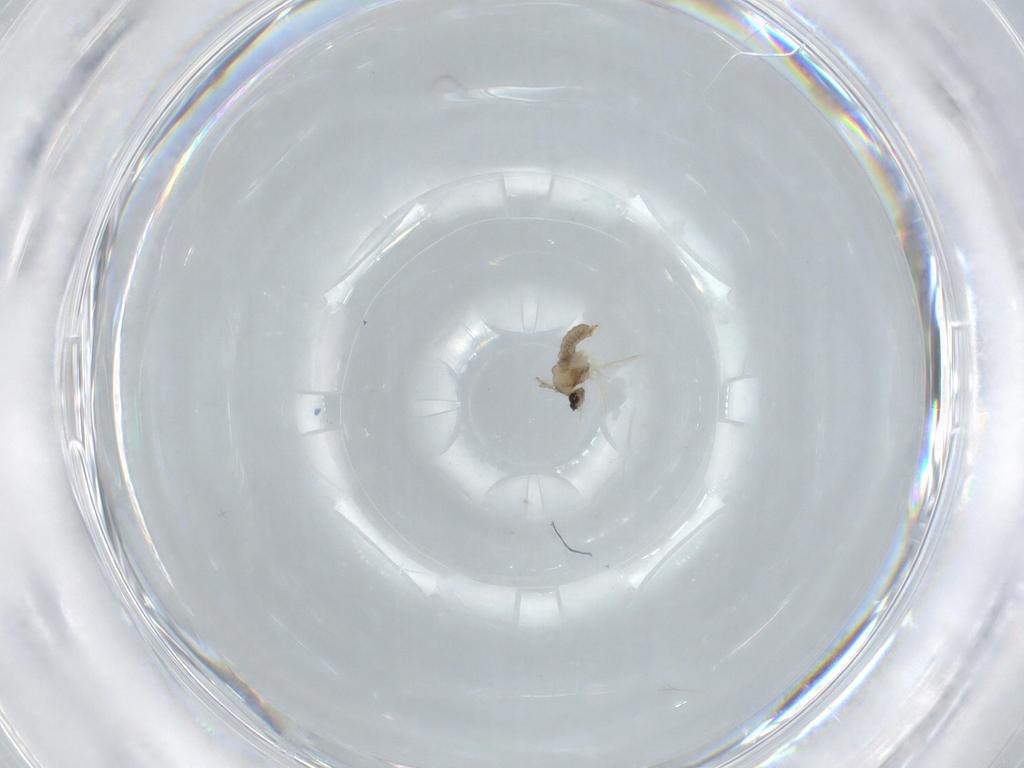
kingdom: Animalia
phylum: Arthropoda
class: Insecta
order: Diptera
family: Cecidomyiidae
